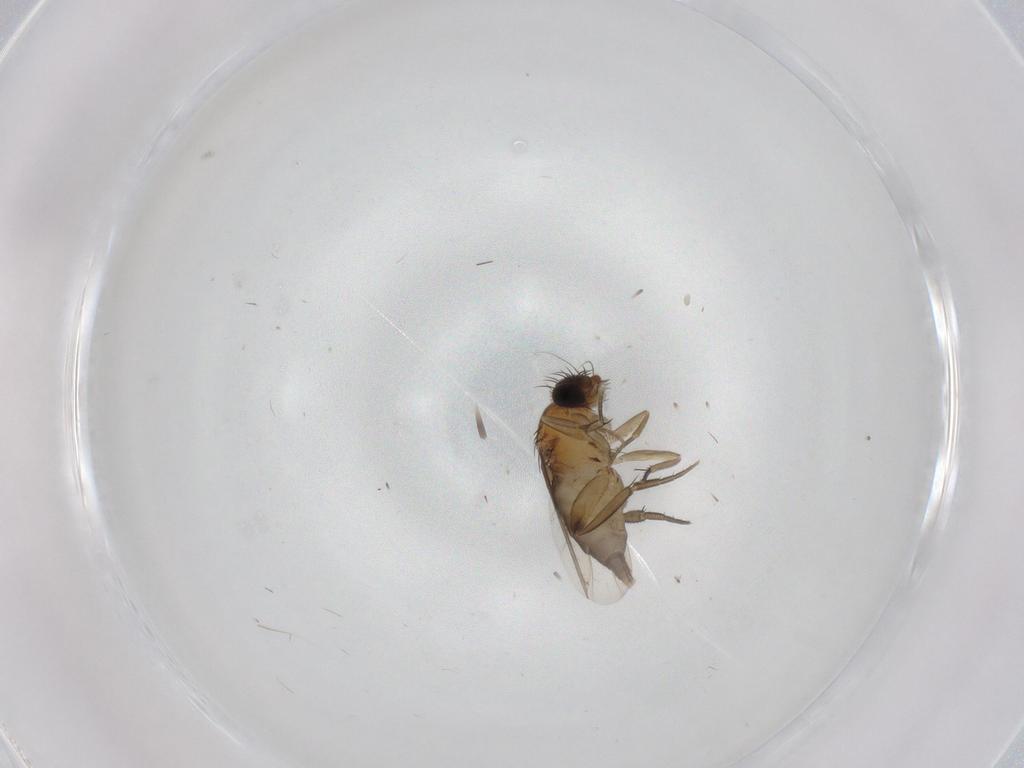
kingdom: Animalia
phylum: Arthropoda
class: Insecta
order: Diptera
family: Phoridae
